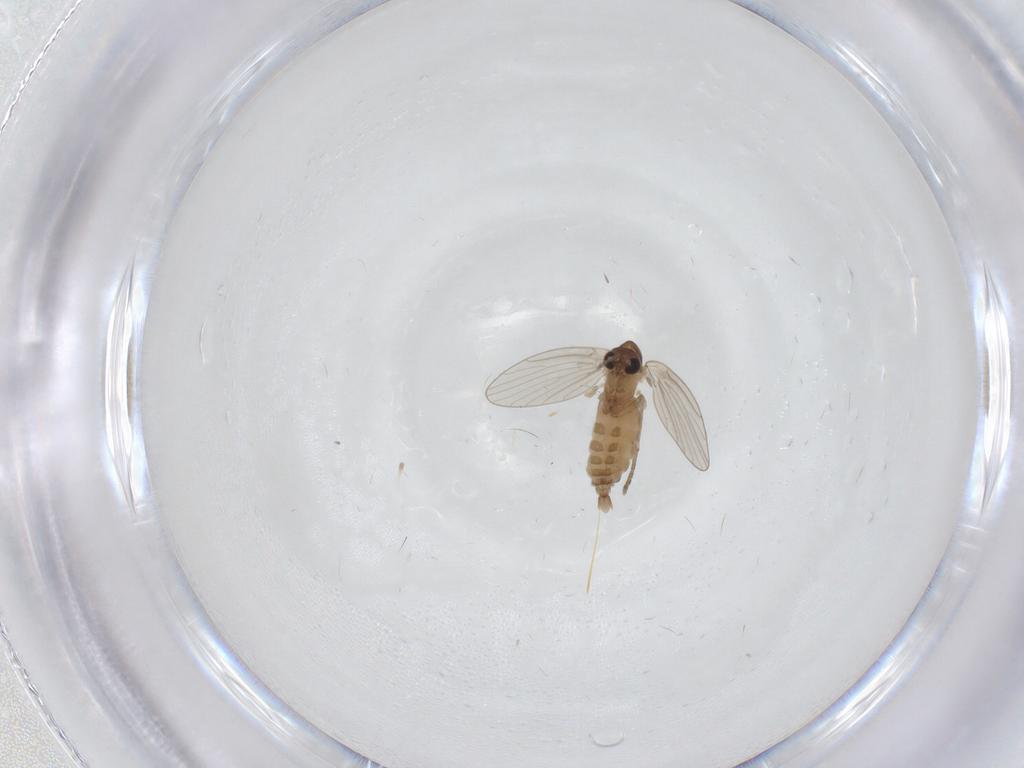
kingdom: Animalia
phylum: Arthropoda
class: Insecta
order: Diptera
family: Psychodidae
